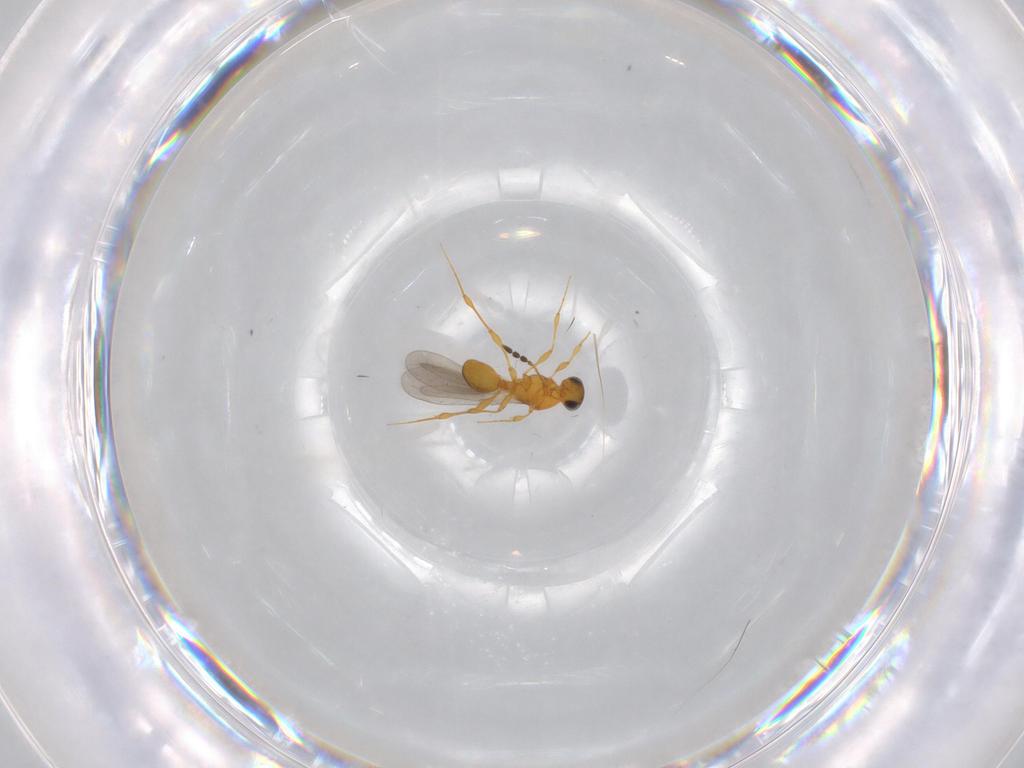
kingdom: Animalia
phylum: Arthropoda
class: Insecta
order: Hymenoptera
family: Platygastridae
